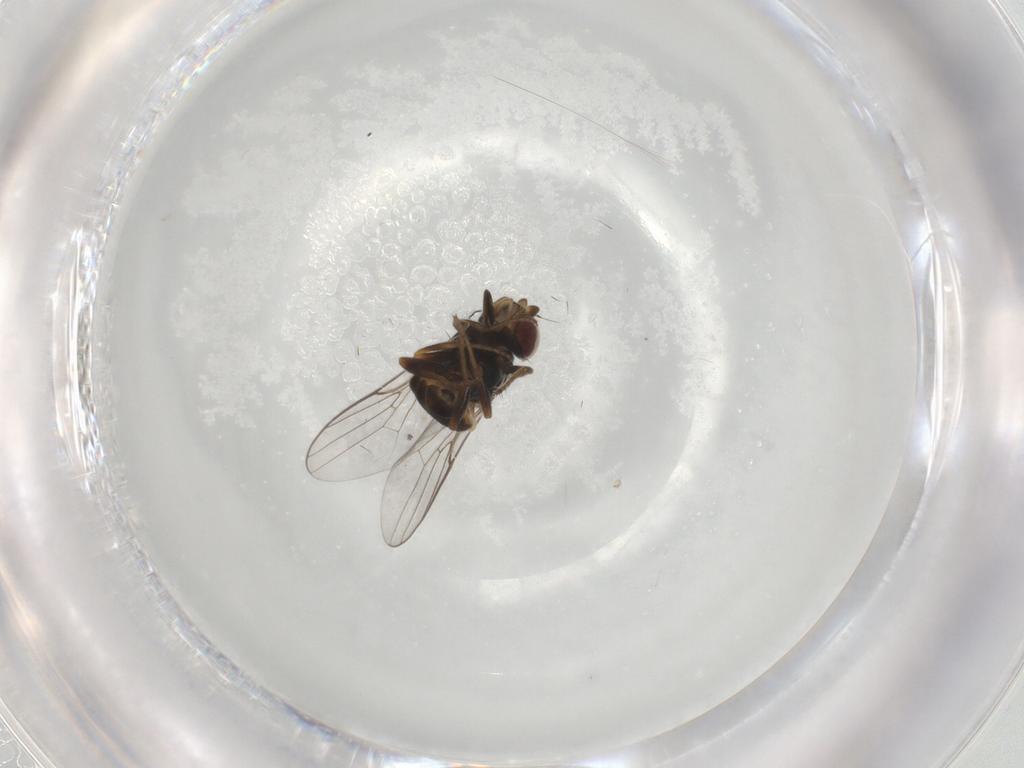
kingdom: Animalia
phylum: Arthropoda
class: Insecta
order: Diptera
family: Chloropidae
